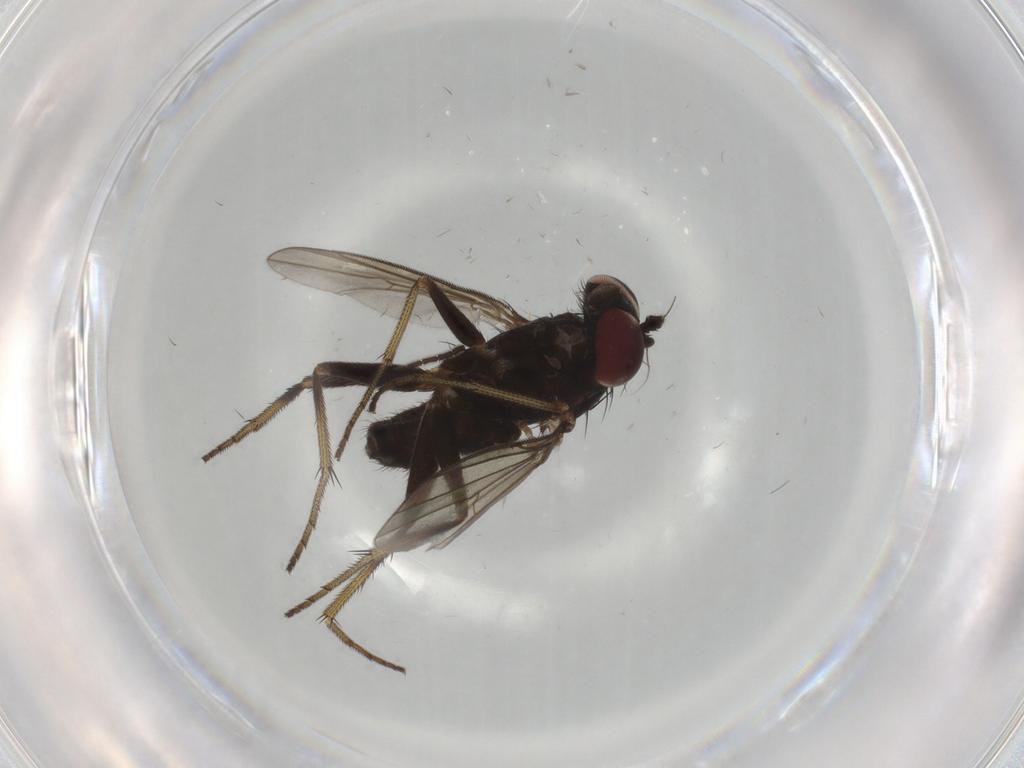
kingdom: Animalia
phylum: Arthropoda
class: Insecta
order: Diptera
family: Dolichopodidae
